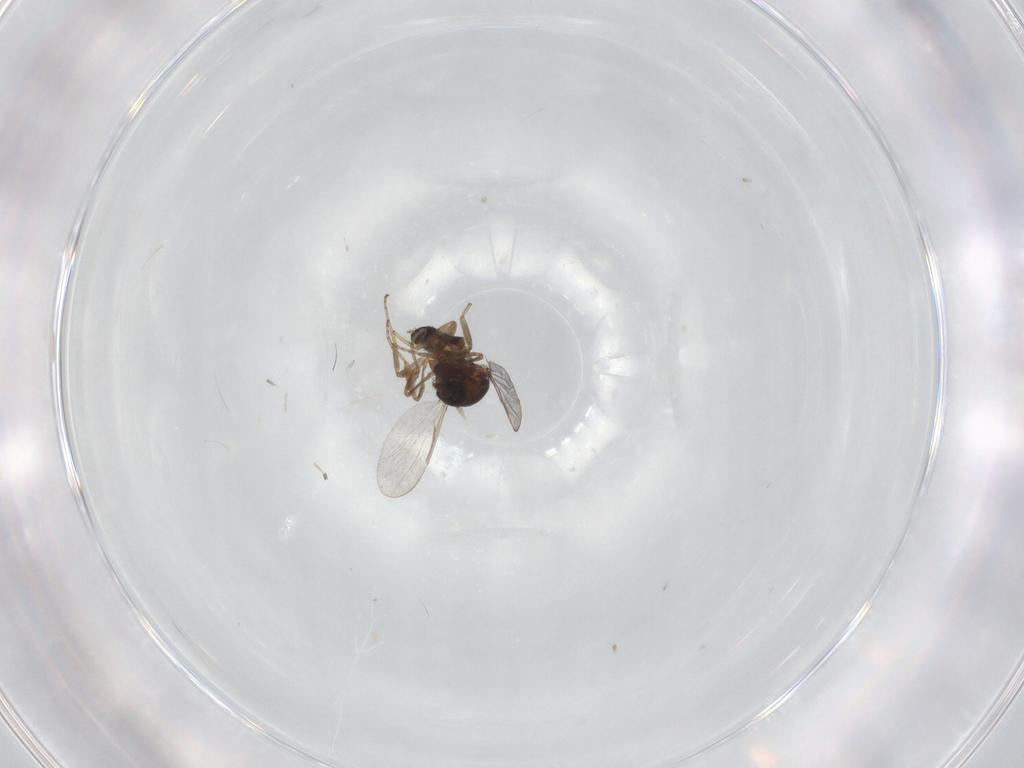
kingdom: Animalia
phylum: Arthropoda
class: Insecta
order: Diptera
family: Ceratopogonidae
